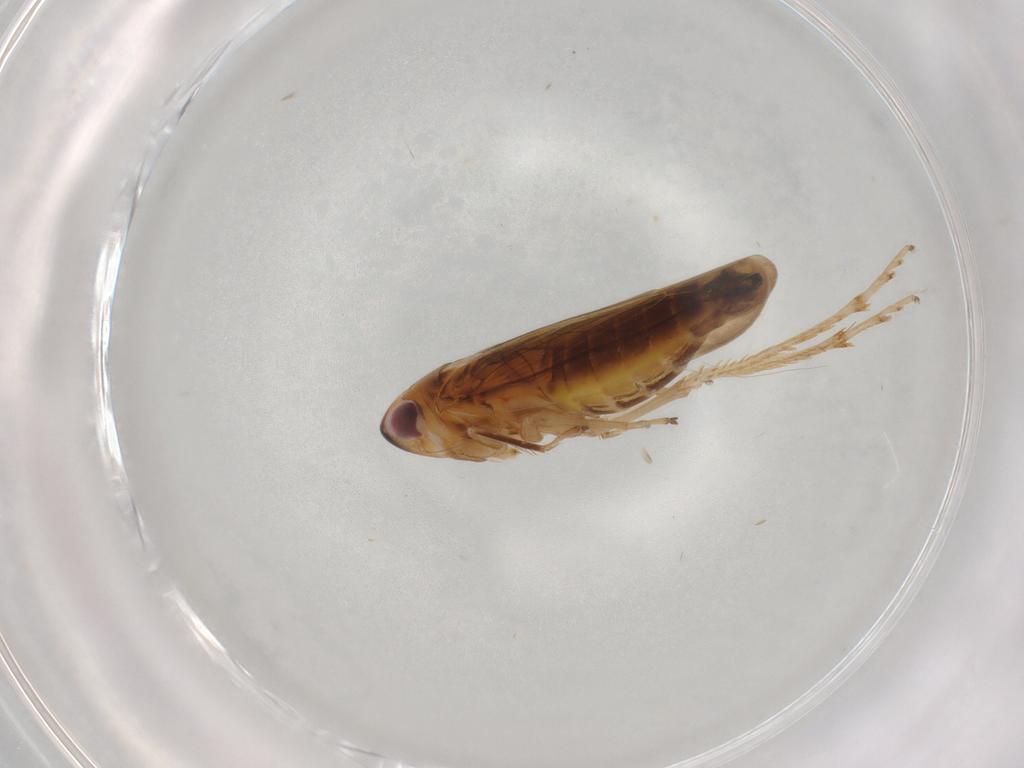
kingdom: Animalia
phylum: Arthropoda
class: Insecta
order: Hemiptera
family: Cicadellidae
